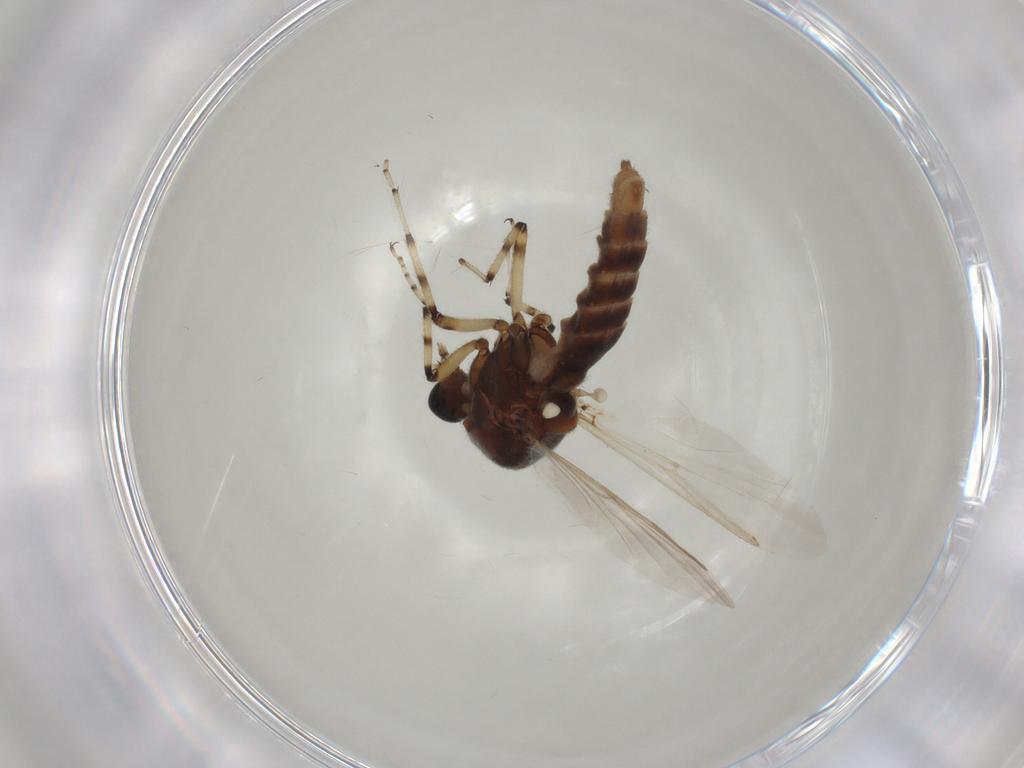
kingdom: Animalia
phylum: Arthropoda
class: Insecta
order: Diptera
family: Ceratopogonidae
